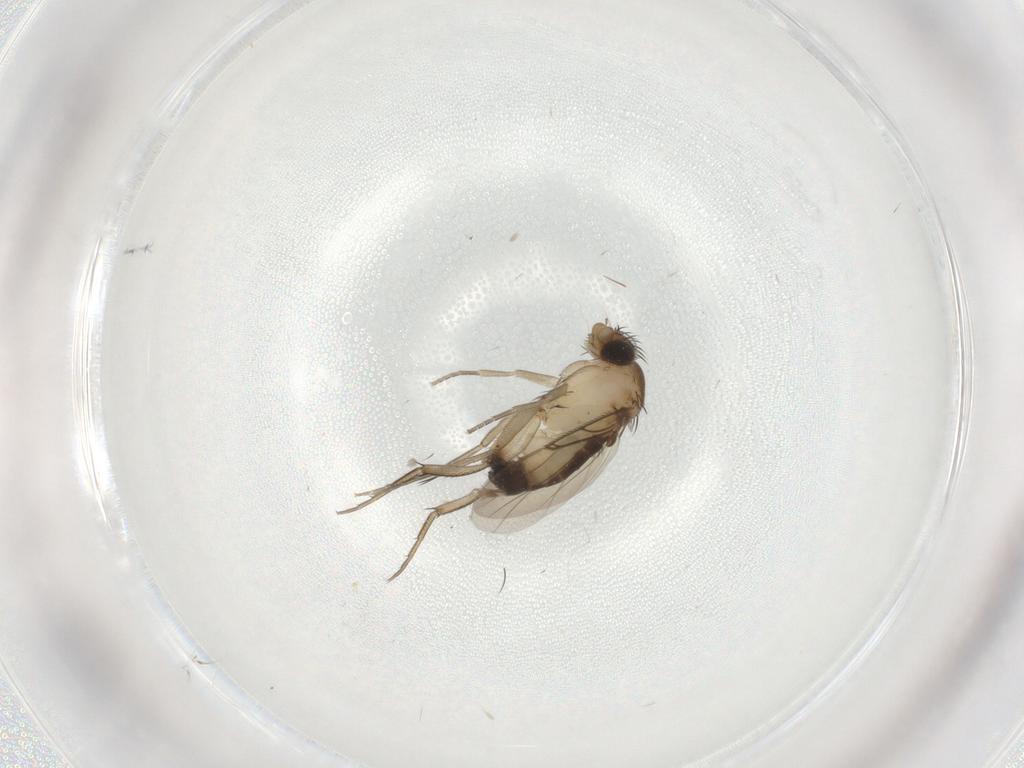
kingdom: Animalia
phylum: Arthropoda
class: Insecta
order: Diptera
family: Phoridae
